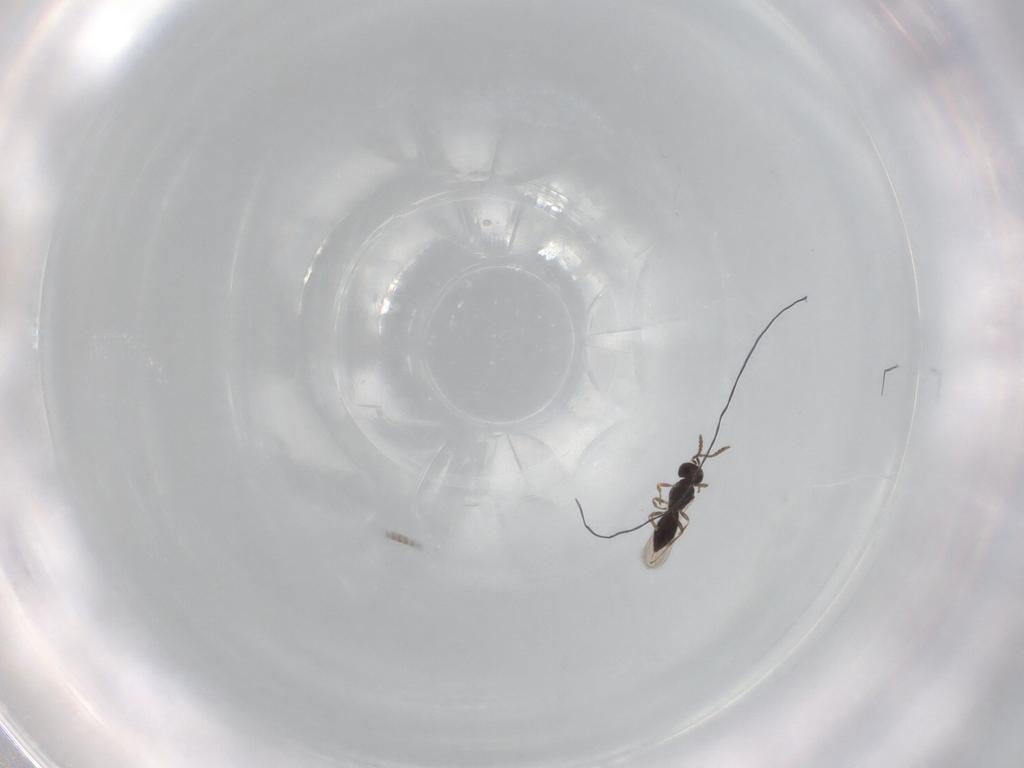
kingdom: Animalia
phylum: Arthropoda
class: Insecta
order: Hymenoptera
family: Scelionidae
